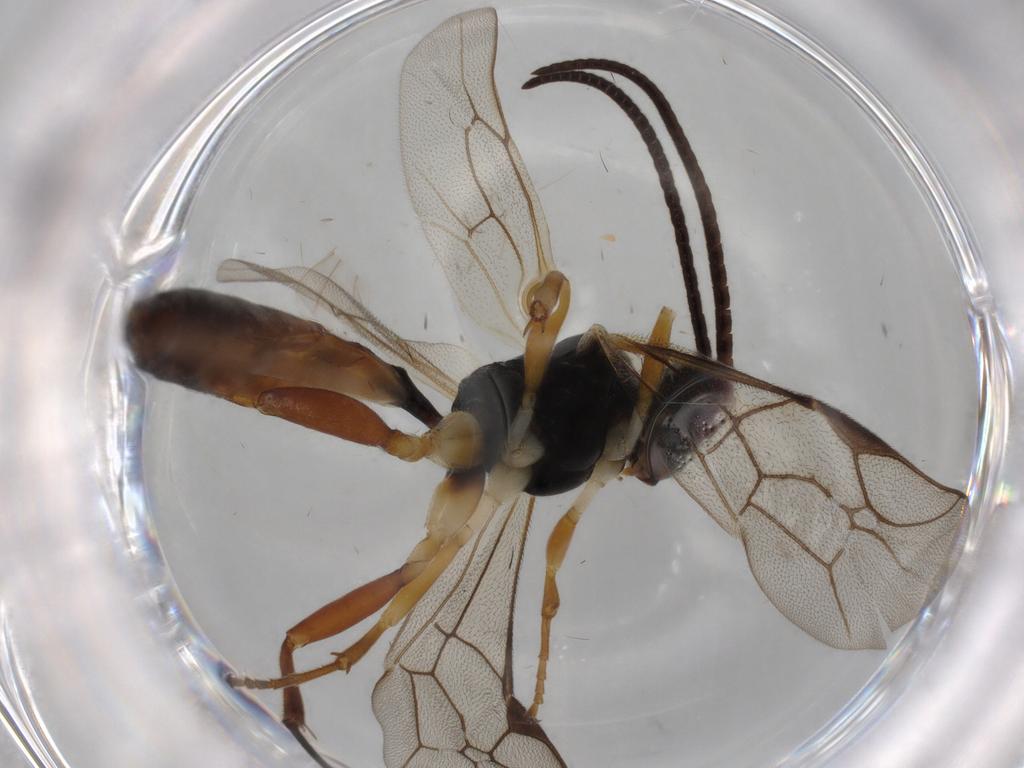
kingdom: Animalia
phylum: Arthropoda
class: Insecta
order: Hymenoptera
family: Ichneumonidae
